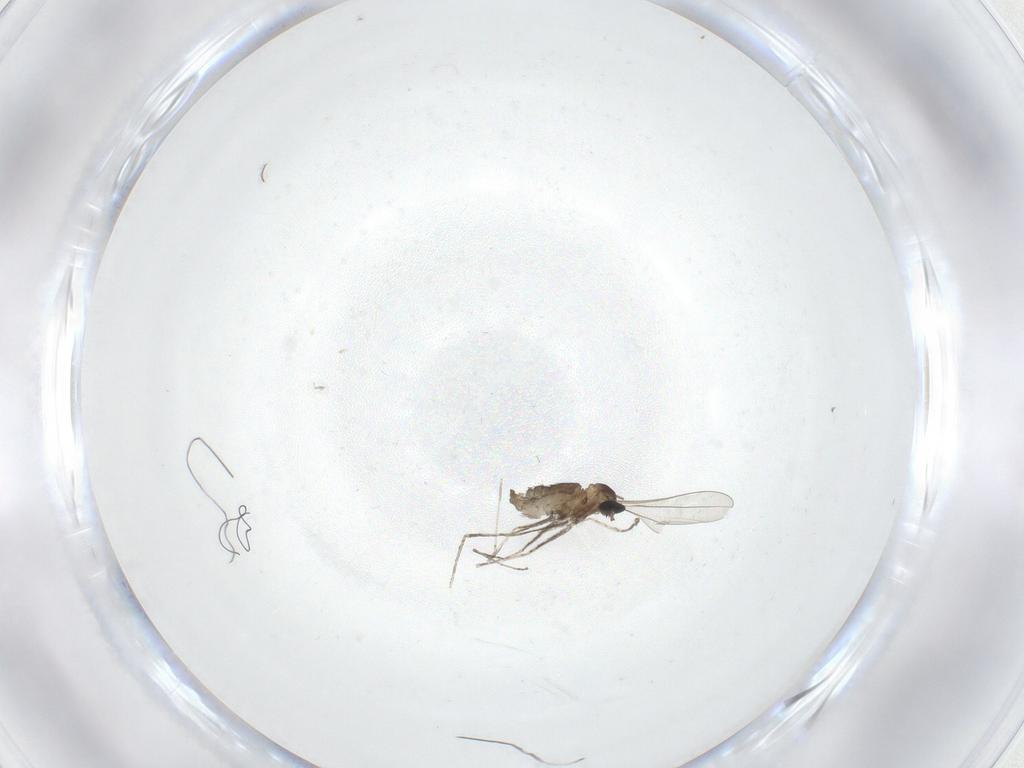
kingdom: Animalia
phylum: Arthropoda
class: Insecta
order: Diptera
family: Cecidomyiidae
